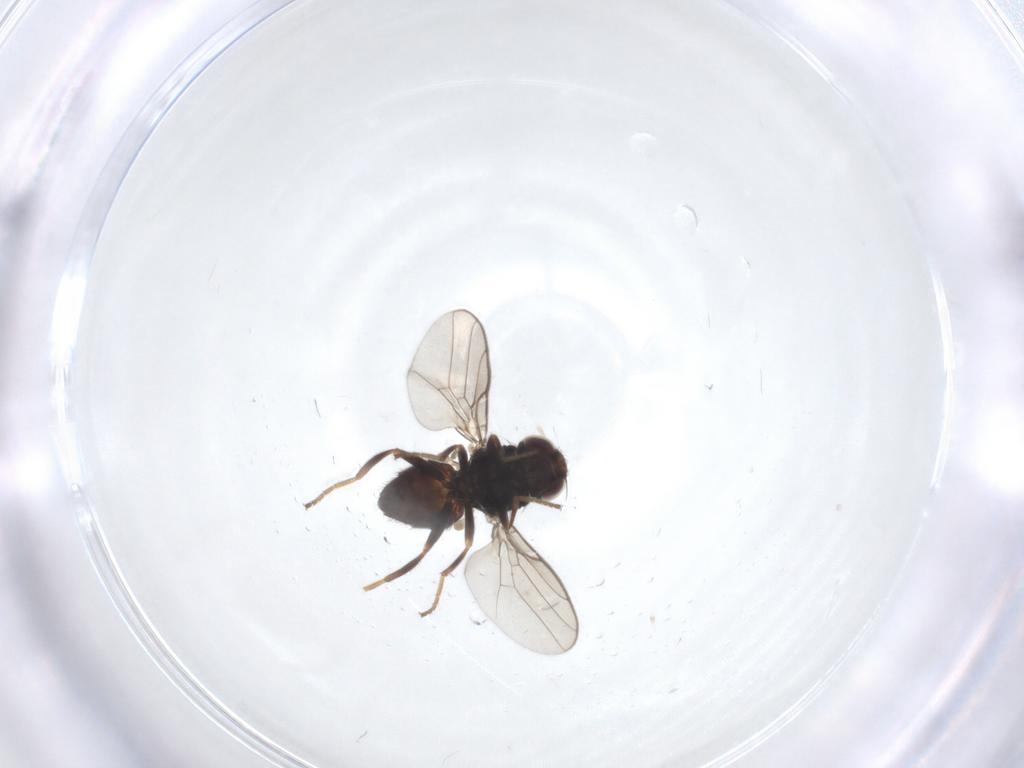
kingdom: Animalia
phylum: Arthropoda
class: Insecta
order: Diptera
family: Chloropidae
